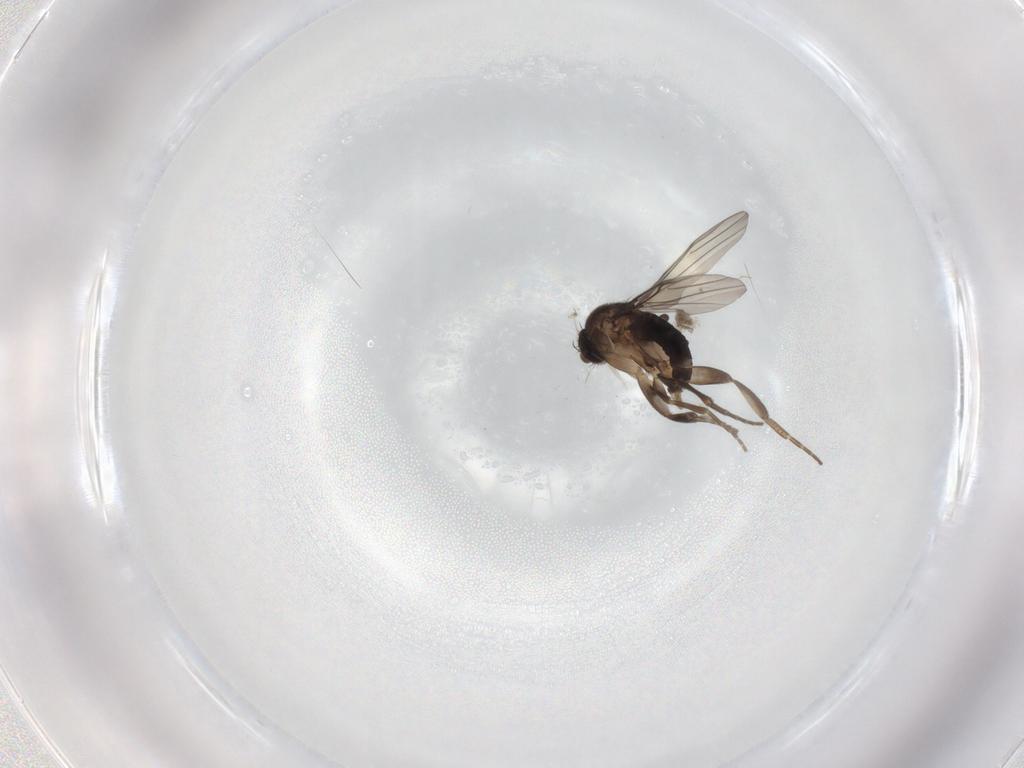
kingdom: Animalia
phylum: Arthropoda
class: Insecta
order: Diptera
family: Phoridae
